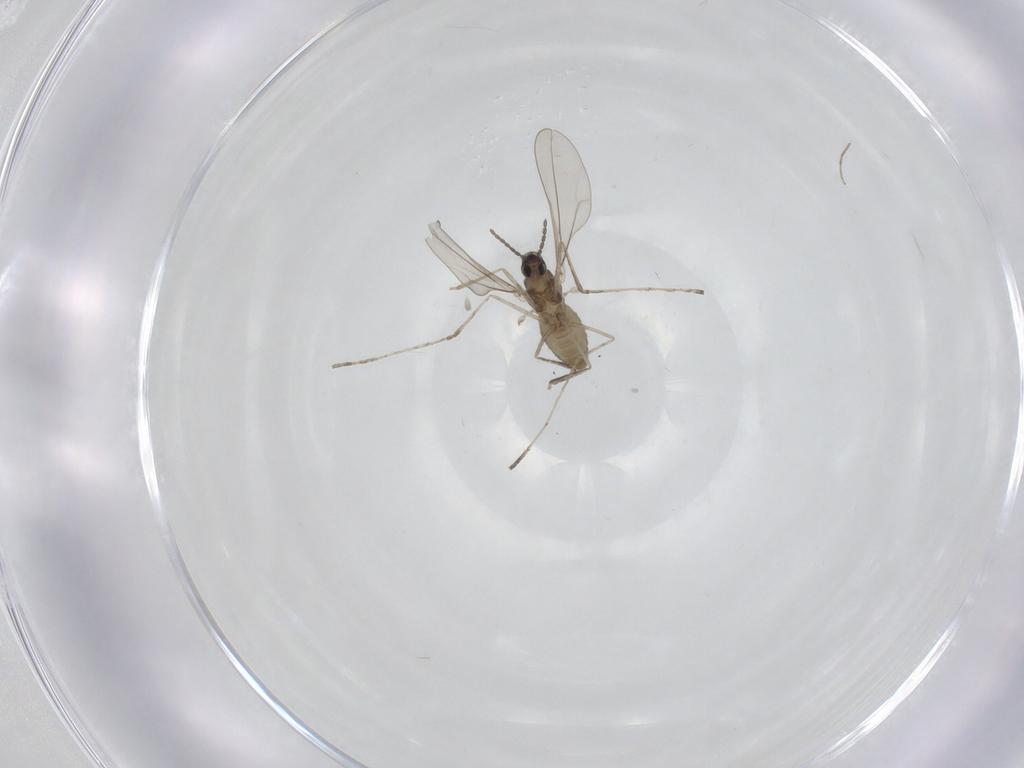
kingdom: Animalia
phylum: Arthropoda
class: Insecta
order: Diptera
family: Cecidomyiidae
